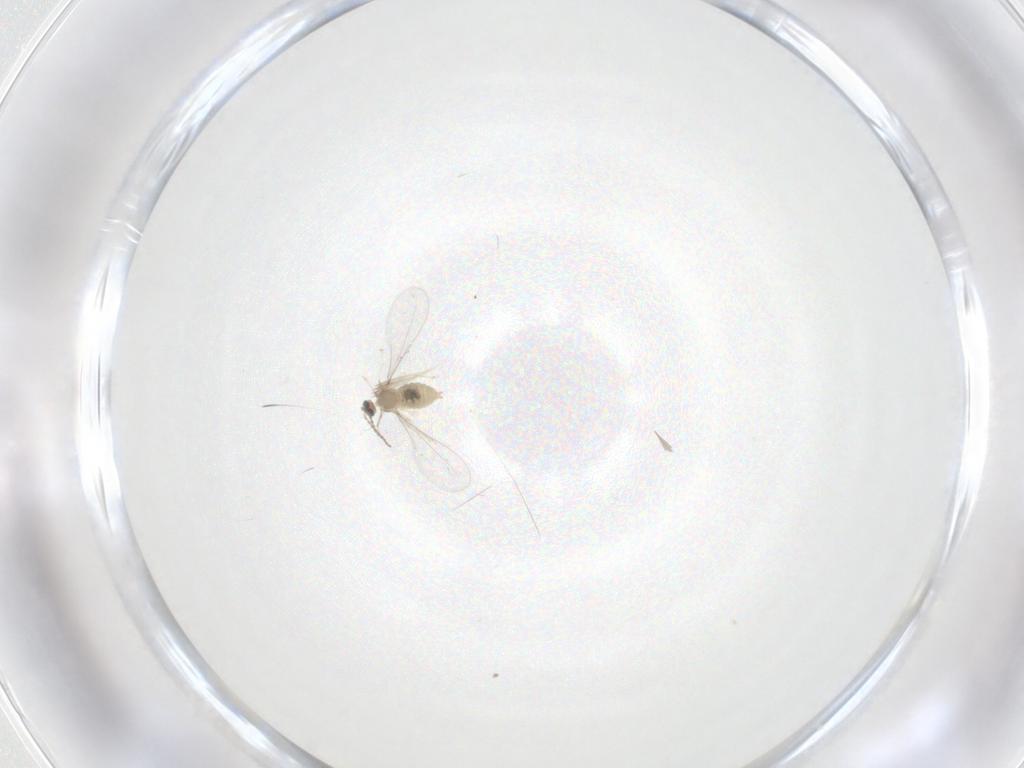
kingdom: Animalia
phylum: Arthropoda
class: Insecta
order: Diptera
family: Cecidomyiidae
